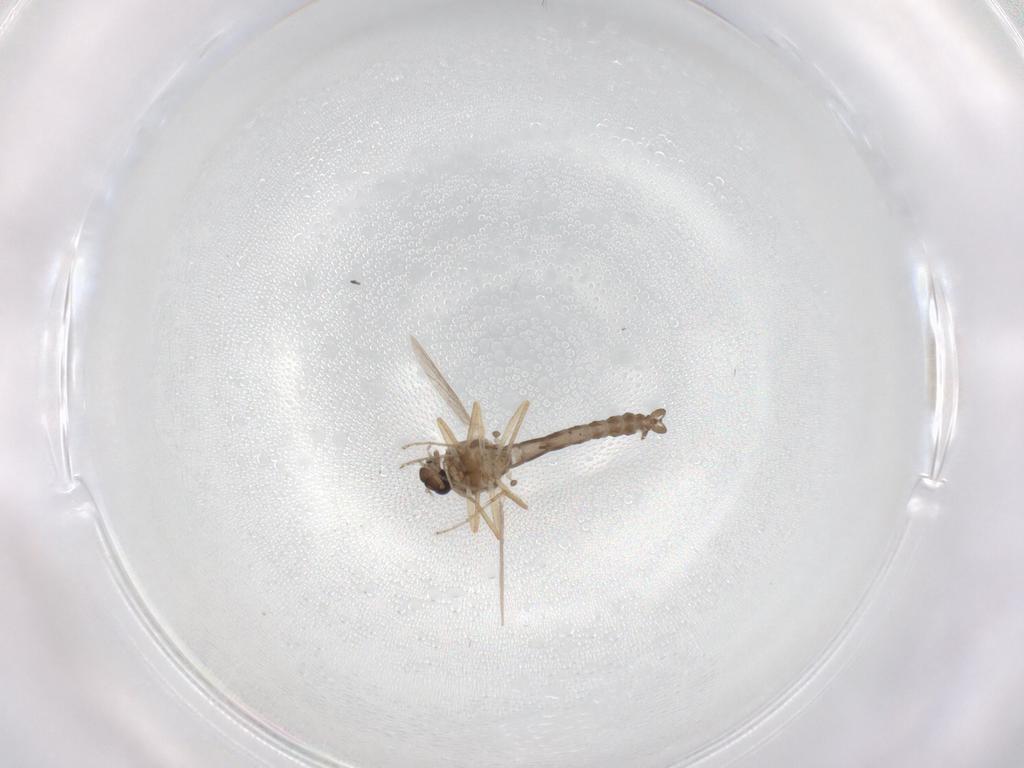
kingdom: Animalia
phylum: Arthropoda
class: Insecta
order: Diptera
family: Ceratopogonidae
